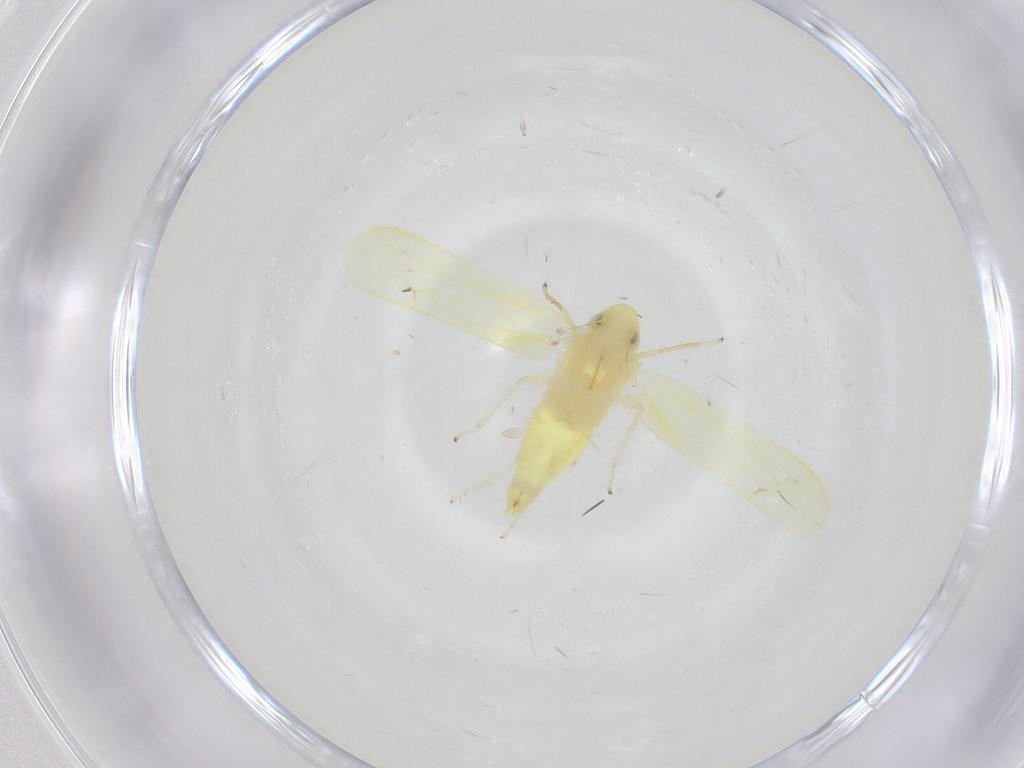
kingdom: Animalia
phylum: Arthropoda
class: Insecta
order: Hemiptera
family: Cicadellidae
